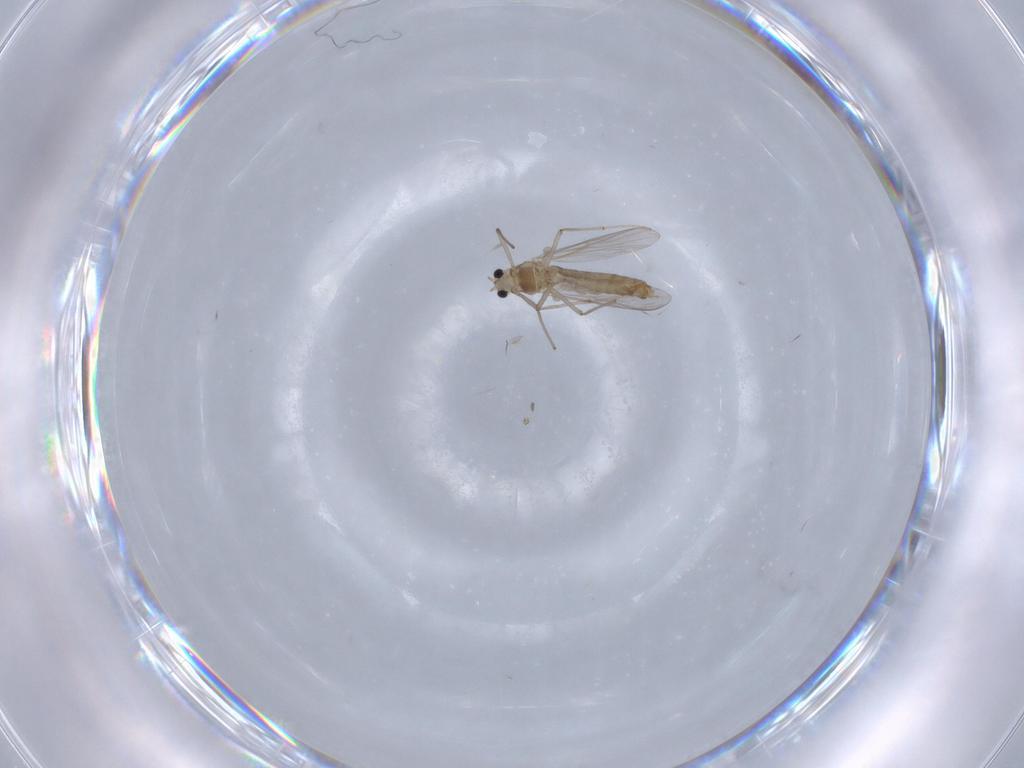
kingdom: Animalia
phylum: Arthropoda
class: Insecta
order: Diptera
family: Chironomidae
